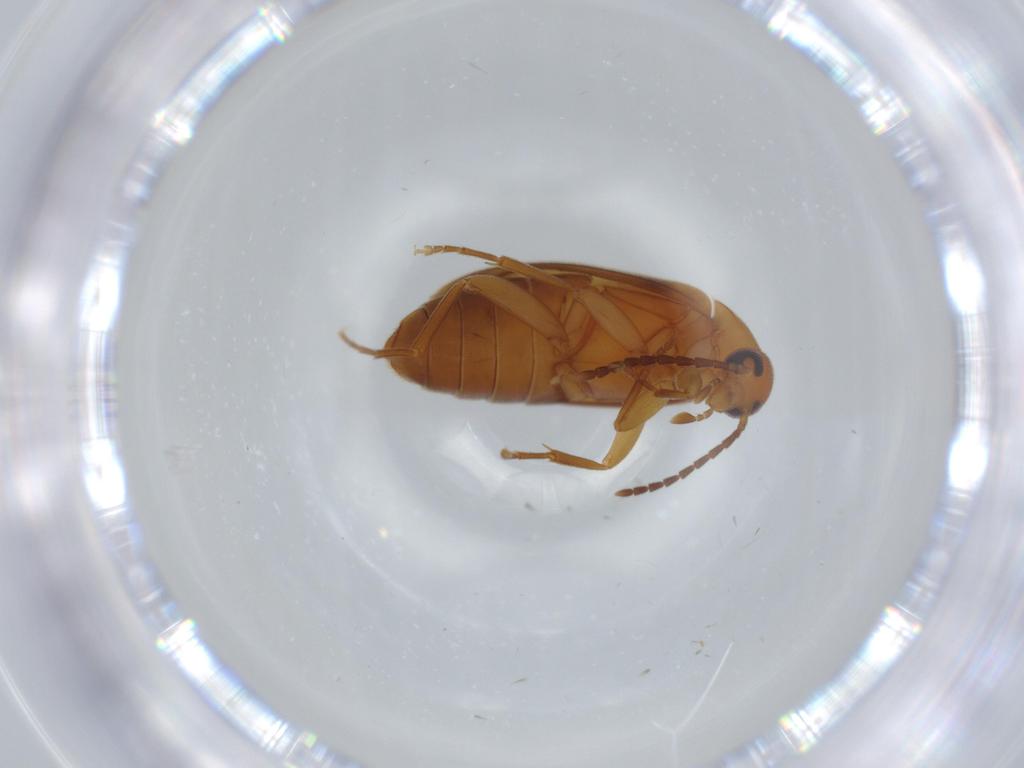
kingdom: Animalia
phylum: Arthropoda
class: Insecta
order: Coleoptera
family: Scraptiidae
